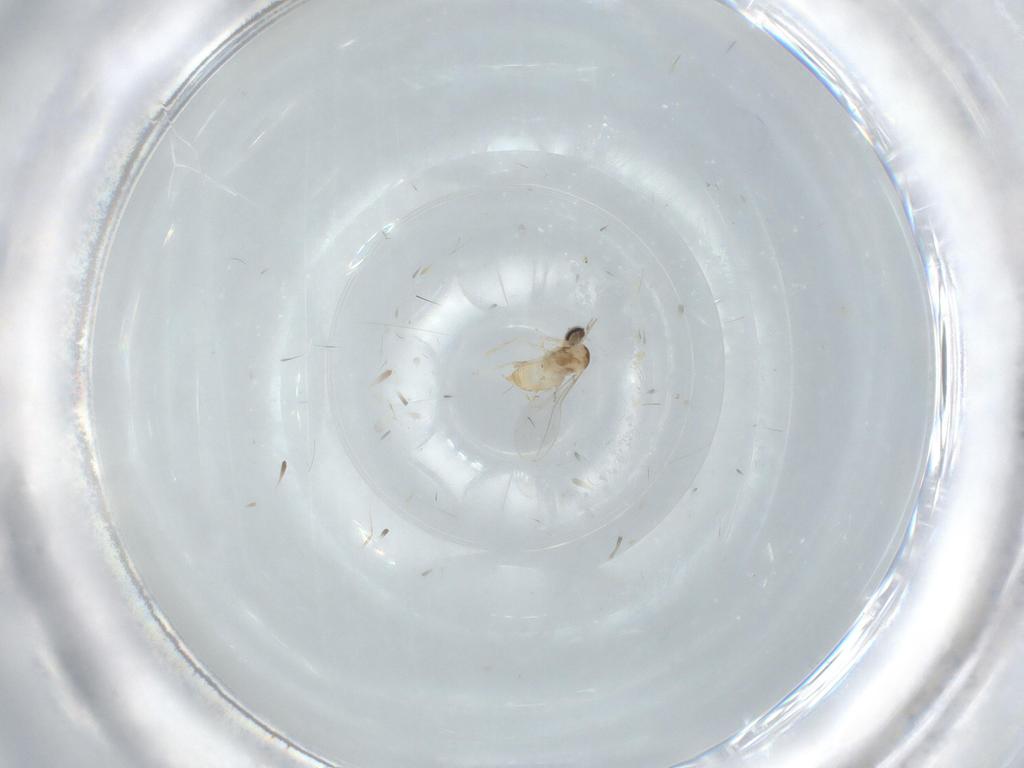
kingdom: Animalia
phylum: Arthropoda
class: Insecta
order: Diptera
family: Cecidomyiidae
